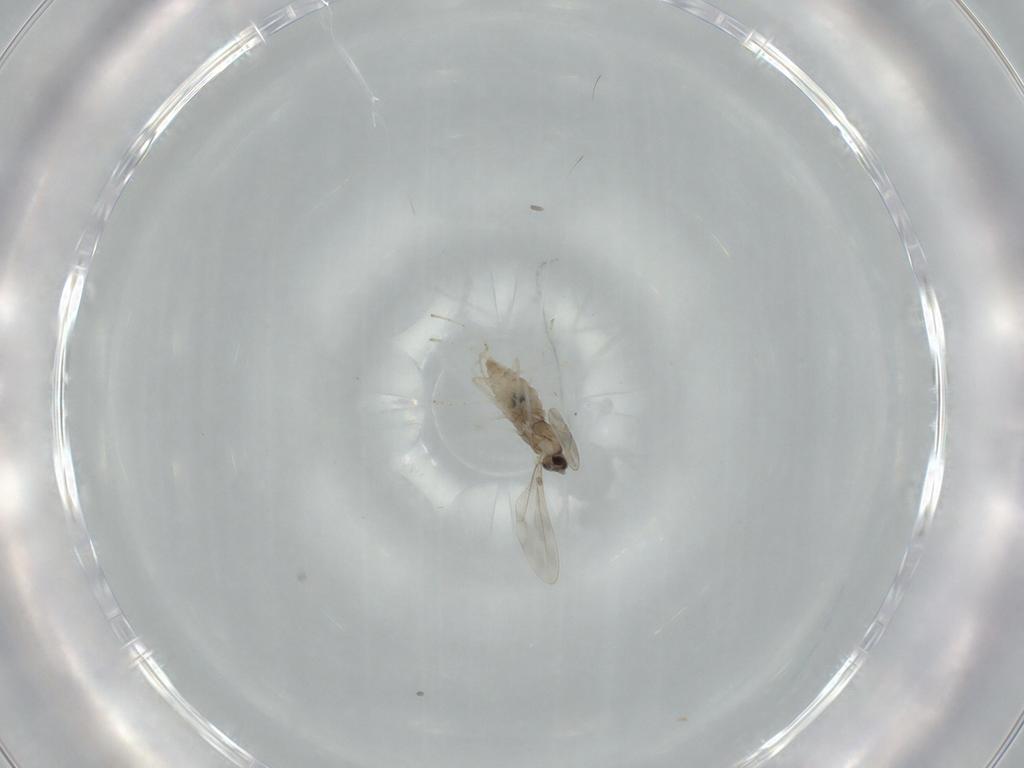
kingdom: Animalia
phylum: Arthropoda
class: Insecta
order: Diptera
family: Cecidomyiidae
